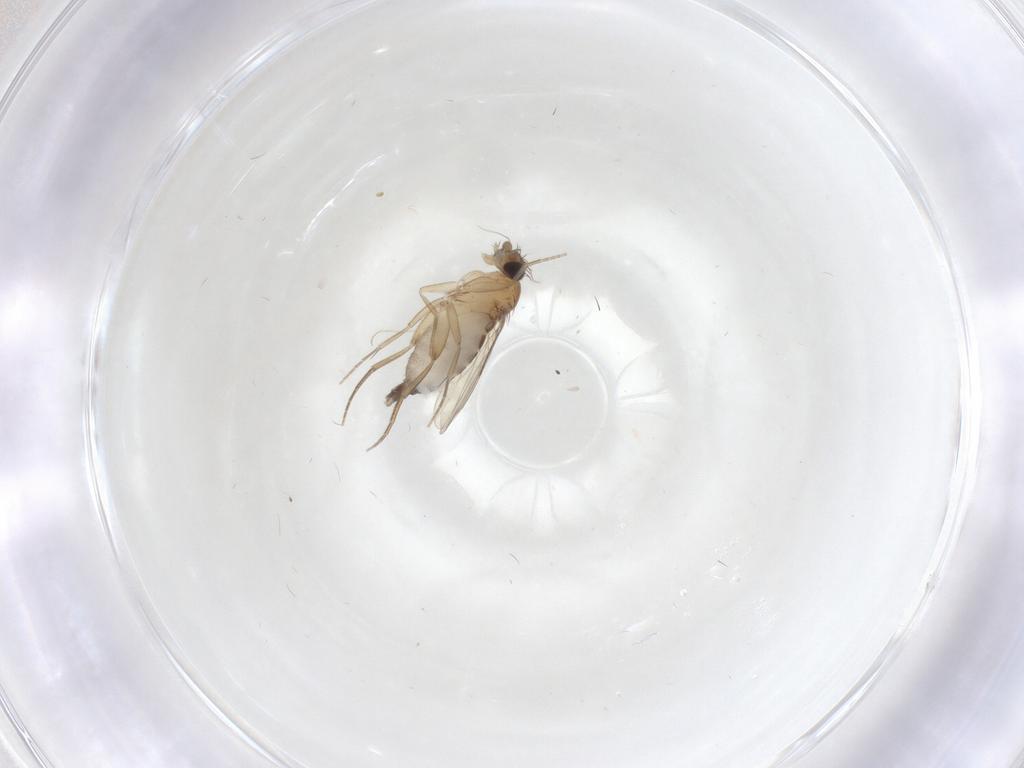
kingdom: Animalia
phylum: Arthropoda
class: Insecta
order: Diptera
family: Phoridae
